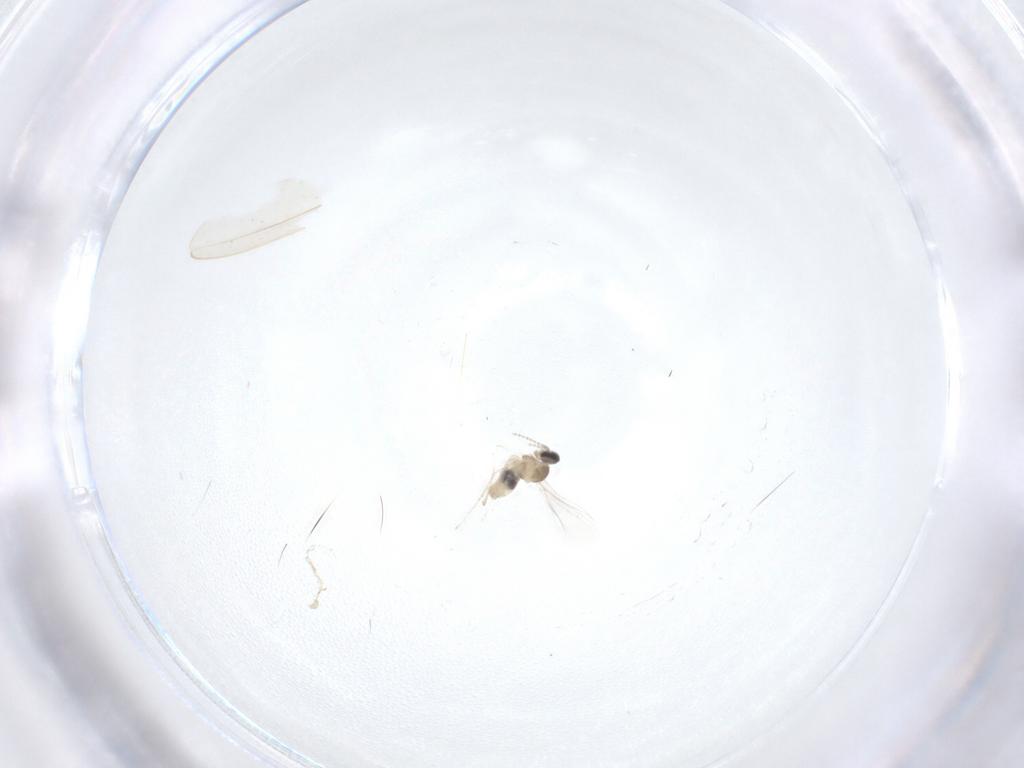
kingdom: Animalia
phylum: Arthropoda
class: Insecta
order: Diptera
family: Cecidomyiidae
